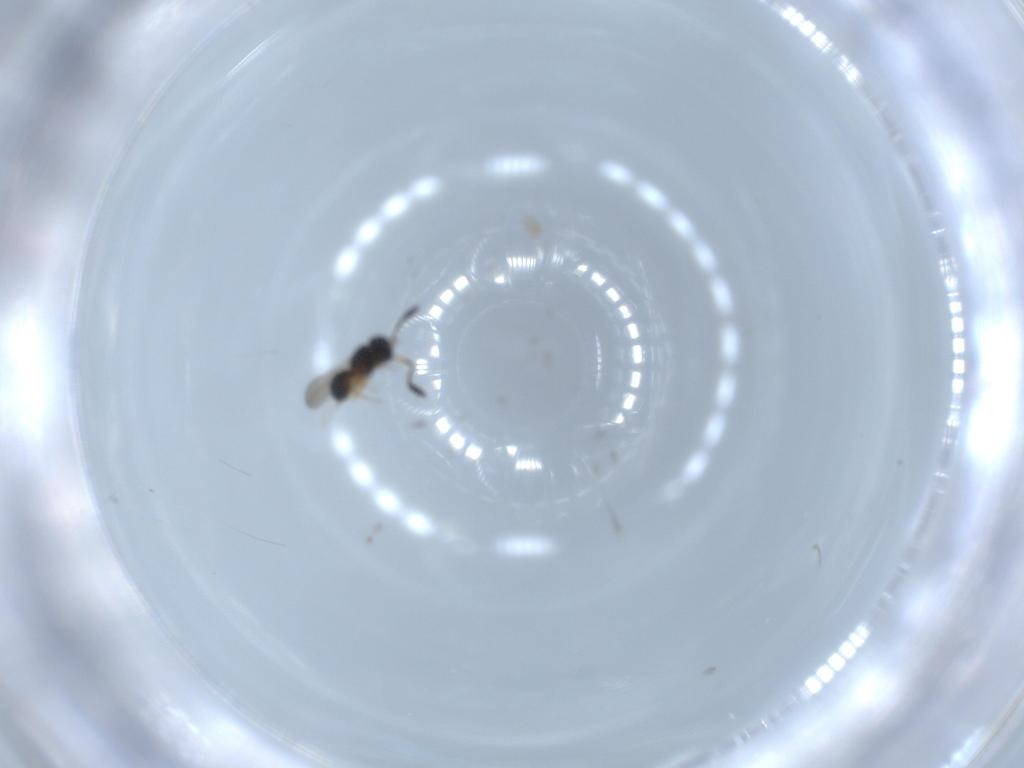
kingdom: Animalia
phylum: Arthropoda
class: Insecta
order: Hymenoptera
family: Scelionidae
